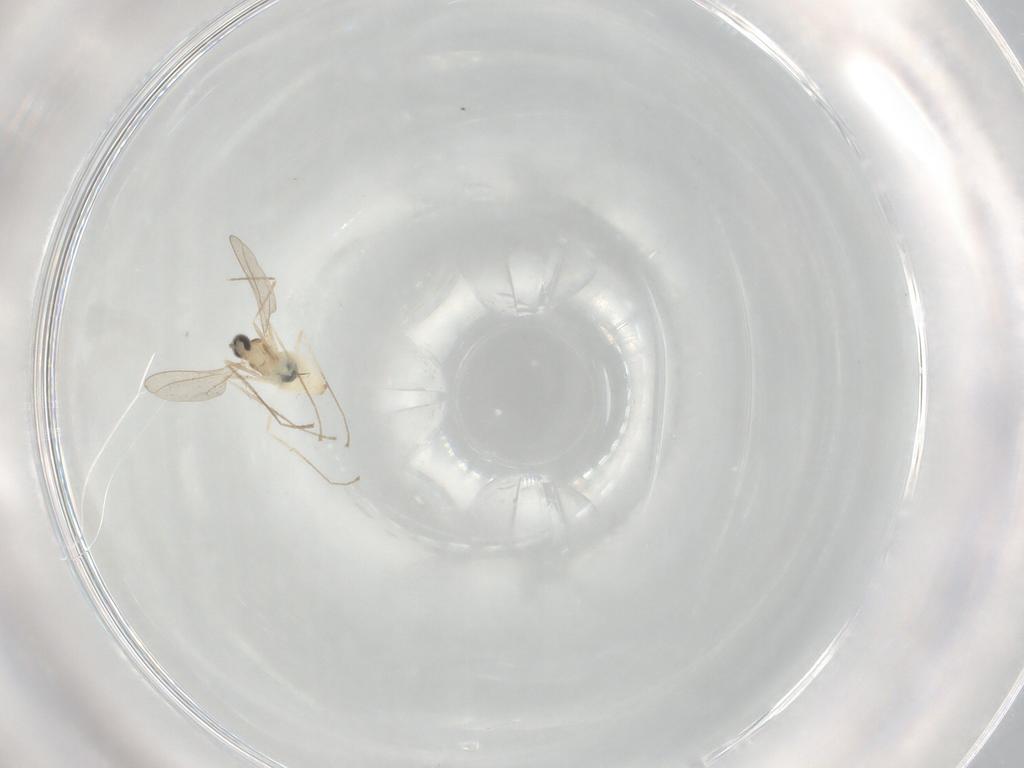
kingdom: Animalia
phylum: Arthropoda
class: Insecta
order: Diptera
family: Cecidomyiidae
